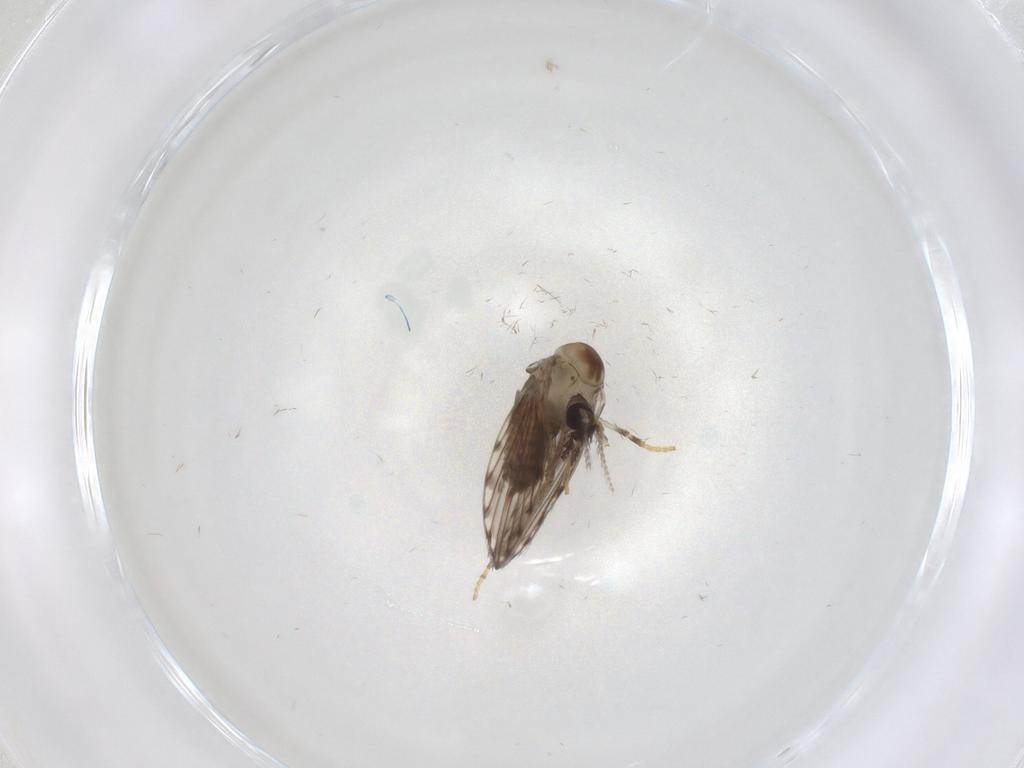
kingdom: Animalia
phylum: Arthropoda
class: Insecta
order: Diptera
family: Psychodidae
